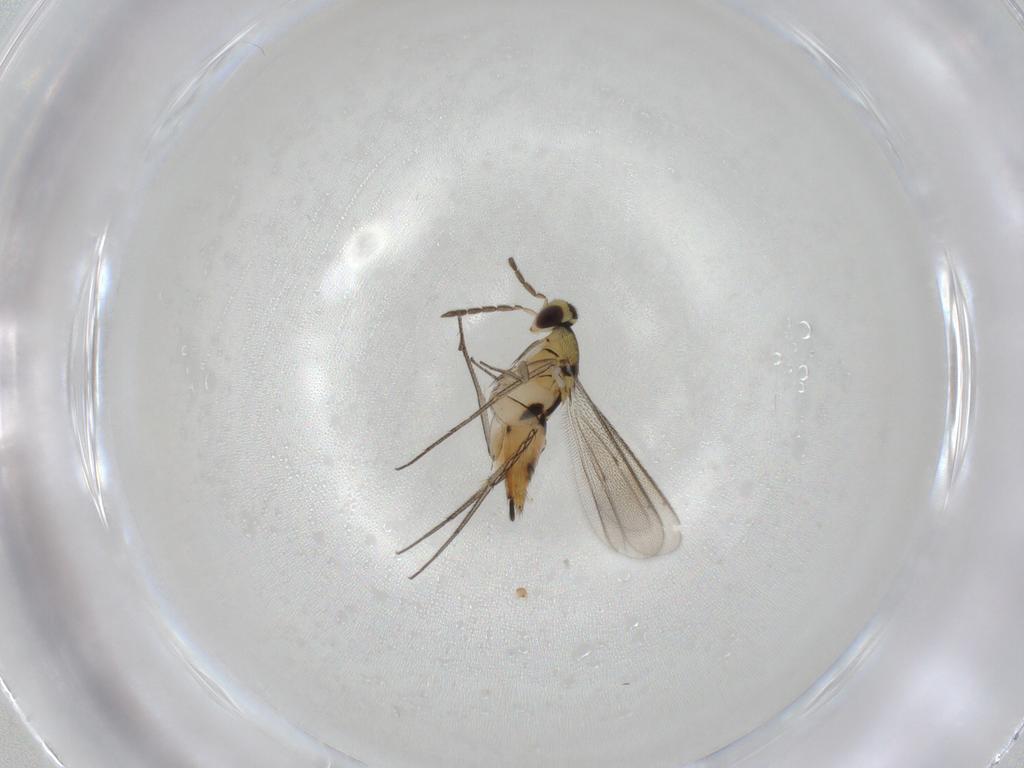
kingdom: Animalia
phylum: Arthropoda
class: Insecta
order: Hymenoptera
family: Eulophidae
